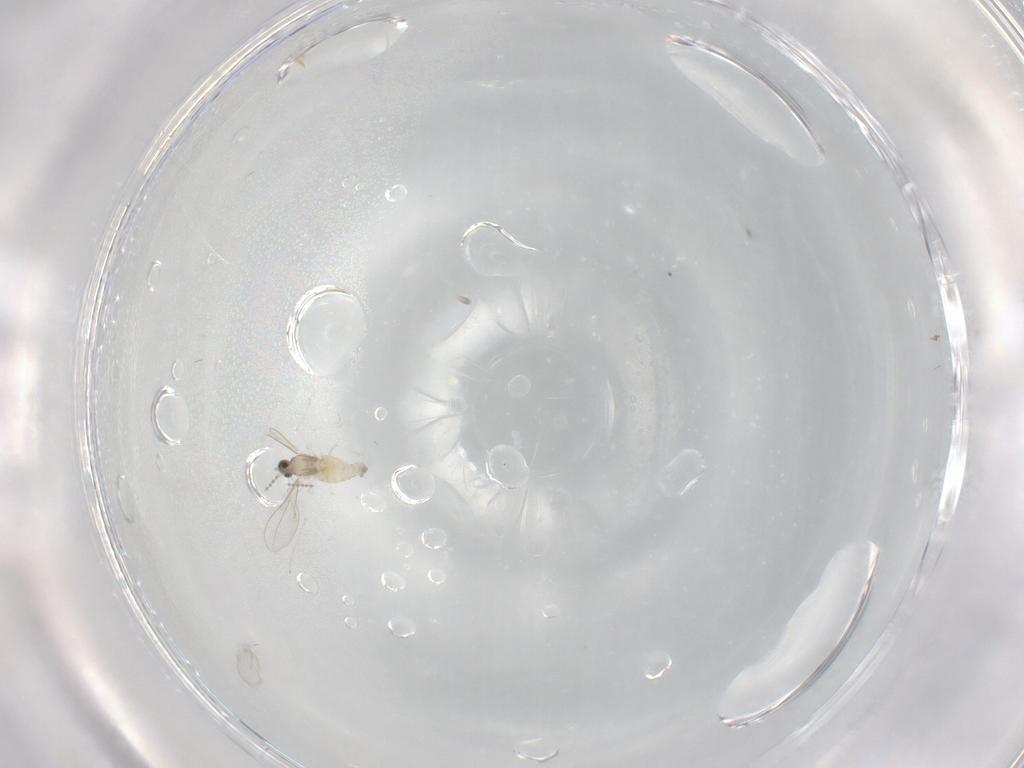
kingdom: Animalia
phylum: Arthropoda
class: Insecta
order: Diptera
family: Cecidomyiidae
